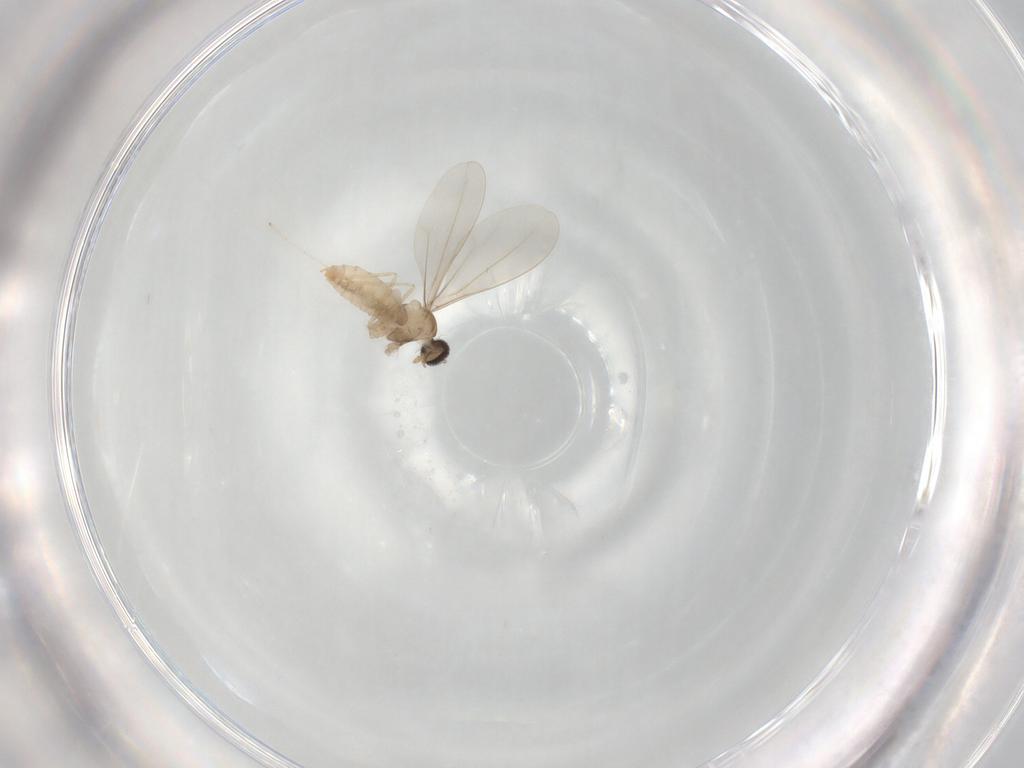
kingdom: Animalia
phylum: Arthropoda
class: Insecta
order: Diptera
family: Cecidomyiidae
